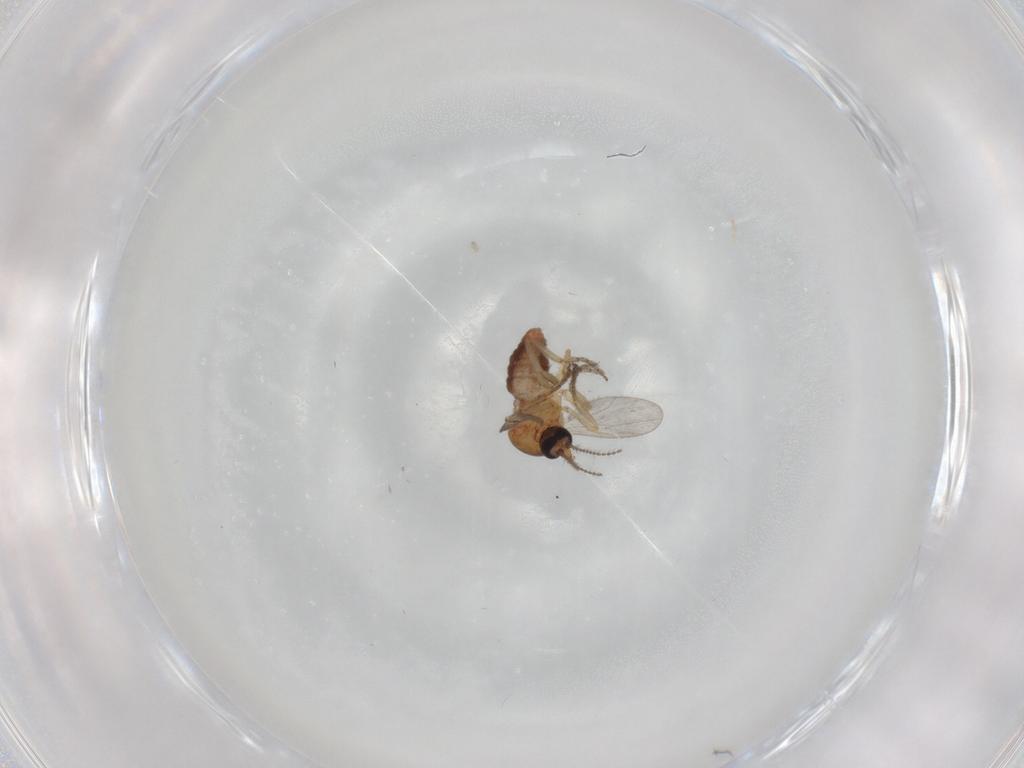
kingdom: Animalia
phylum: Arthropoda
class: Insecta
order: Diptera
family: Ceratopogonidae
